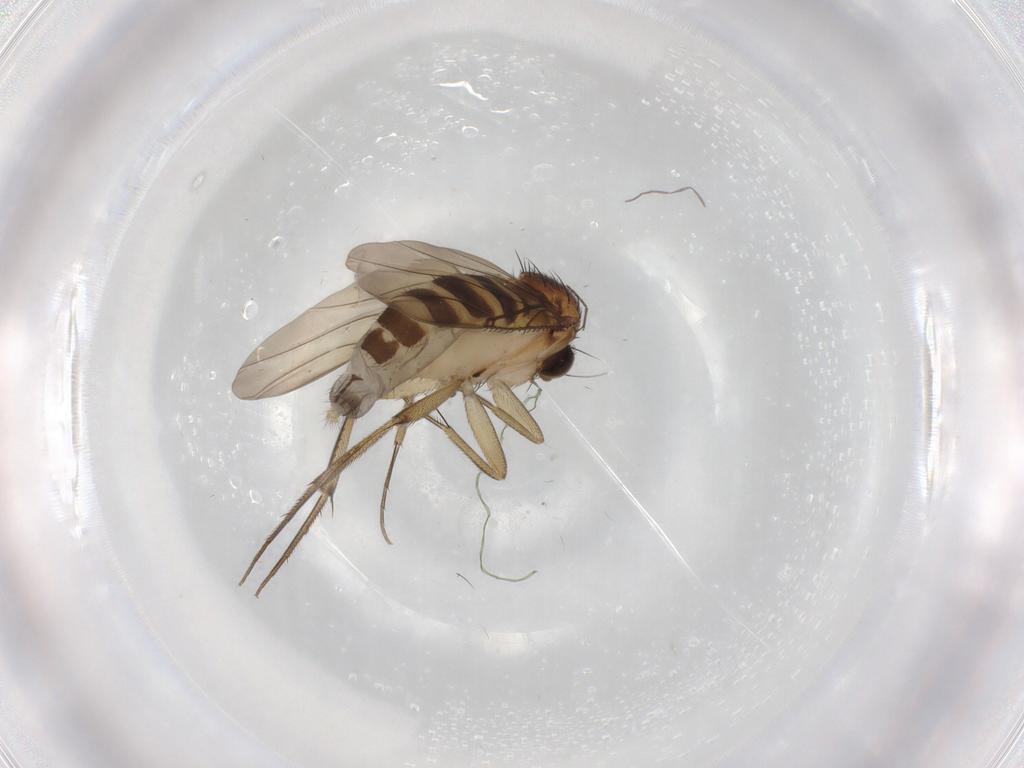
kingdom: Animalia
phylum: Arthropoda
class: Insecta
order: Diptera
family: Phoridae
